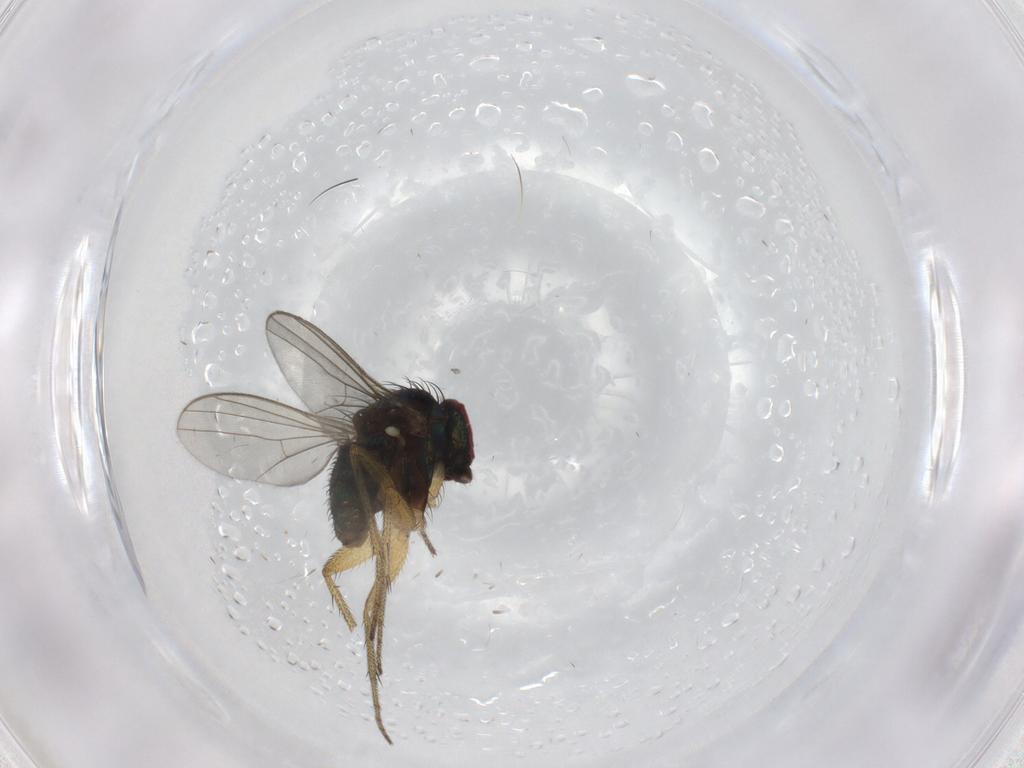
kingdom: Animalia
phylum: Arthropoda
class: Insecta
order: Diptera
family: Dolichopodidae
